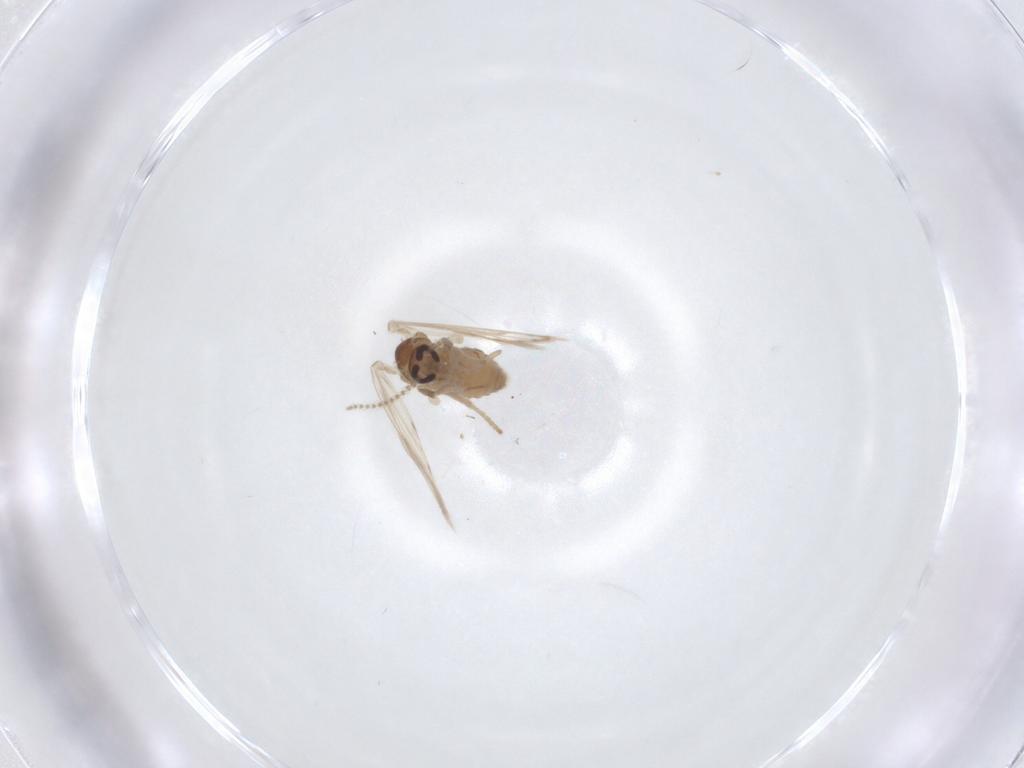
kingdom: Animalia
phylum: Arthropoda
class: Insecta
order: Diptera
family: Psychodidae
